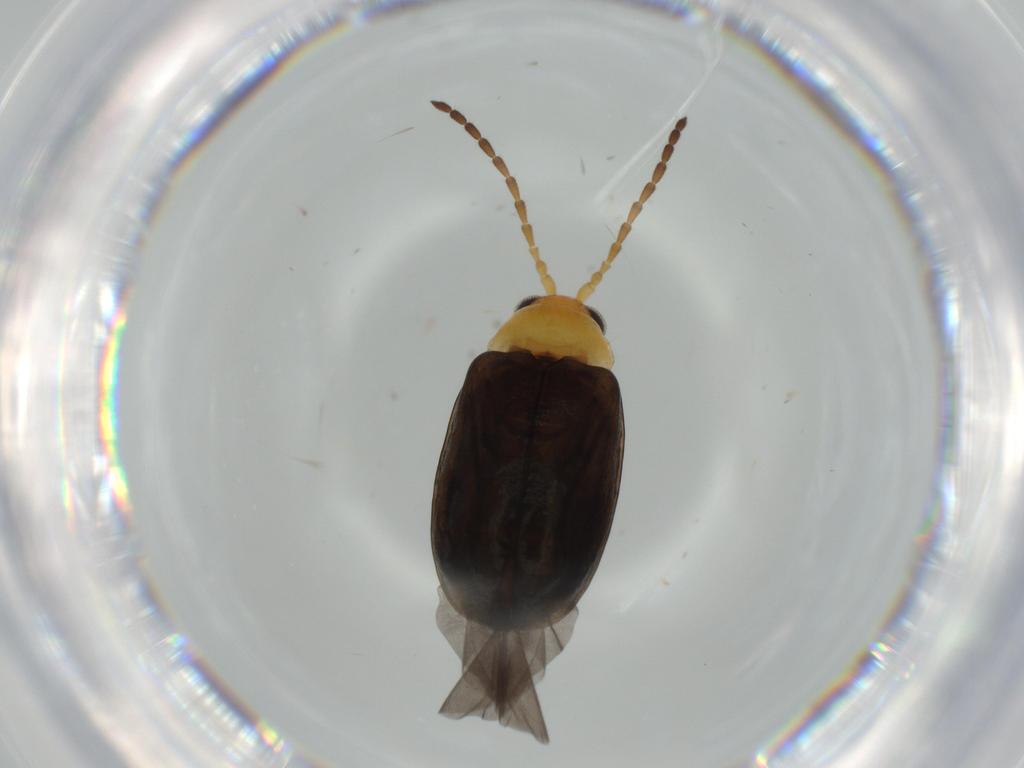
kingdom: Animalia
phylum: Arthropoda
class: Insecta
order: Coleoptera
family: Chrysomelidae
